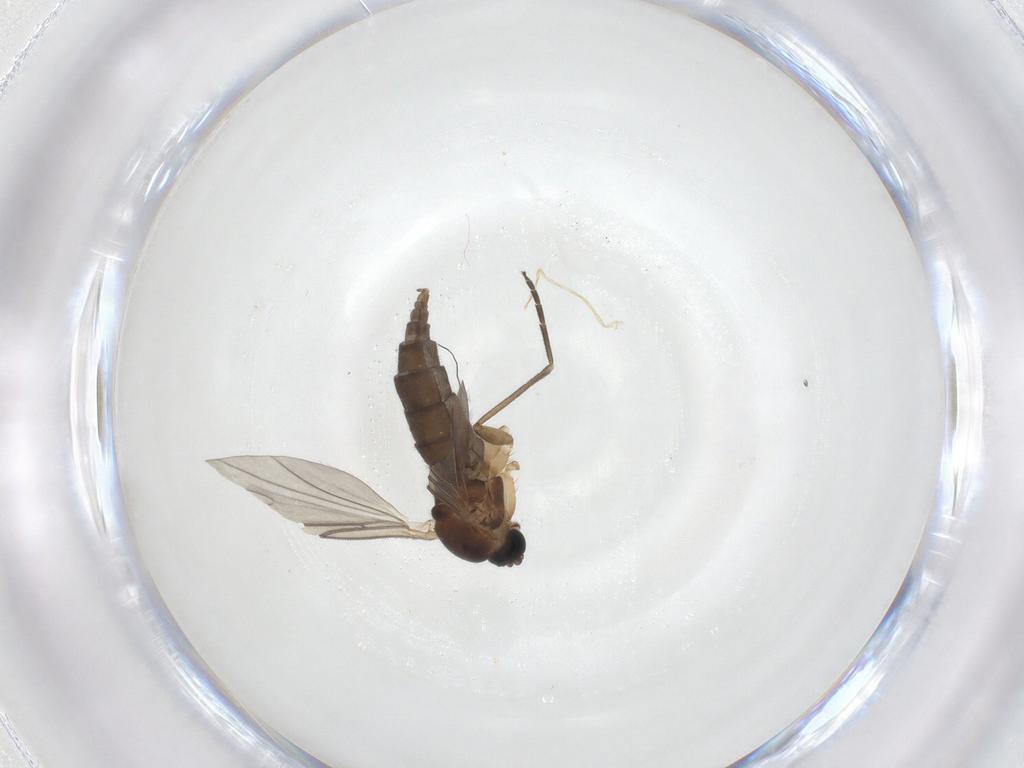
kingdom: Animalia
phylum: Arthropoda
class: Insecta
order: Diptera
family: Sciaridae
